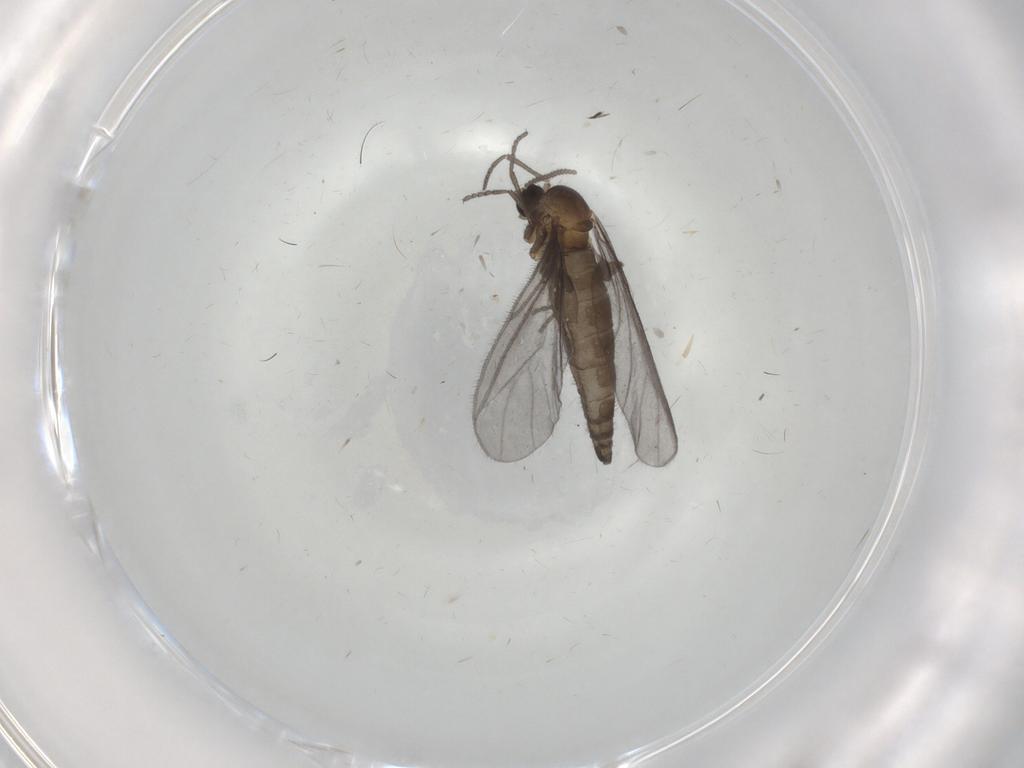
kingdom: Animalia
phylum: Arthropoda
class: Insecta
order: Diptera
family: Sciaridae
